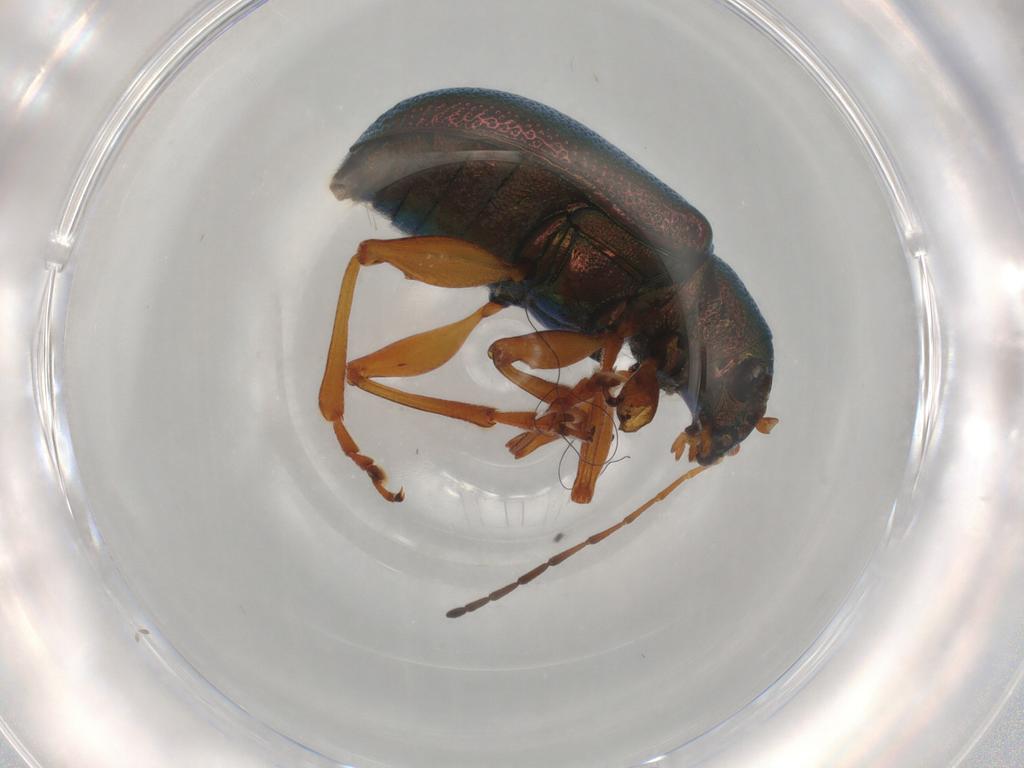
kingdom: Animalia
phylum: Arthropoda
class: Insecta
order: Coleoptera
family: Chrysomelidae
